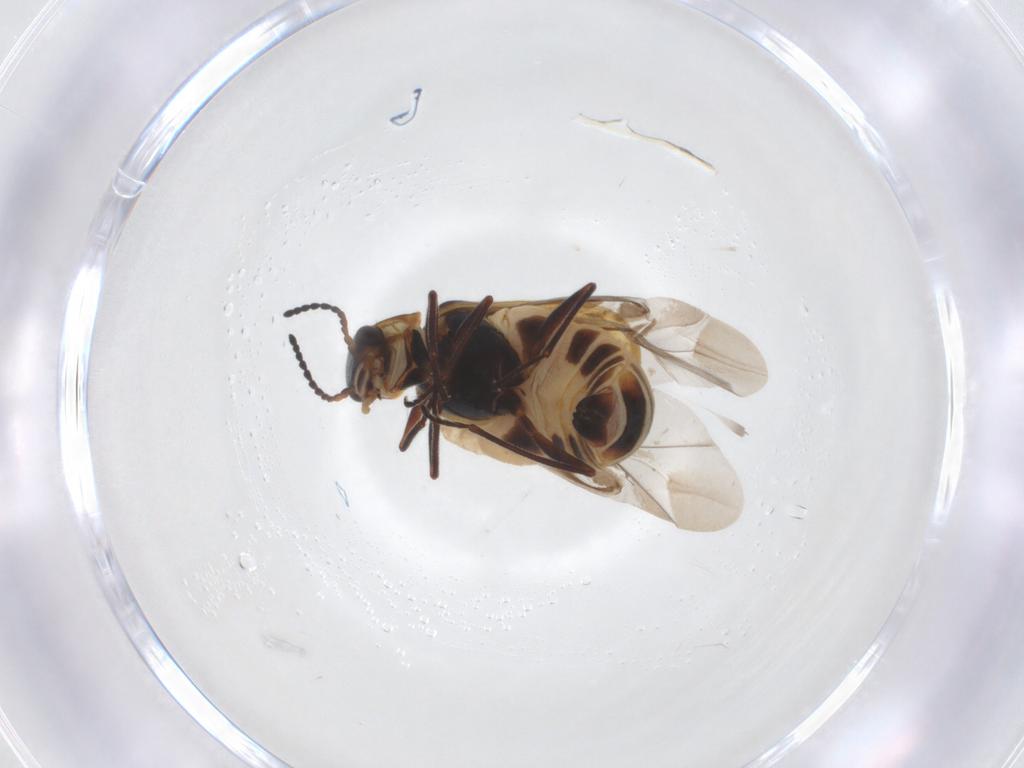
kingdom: Animalia
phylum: Arthropoda
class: Insecta
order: Coleoptera
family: Melyridae
